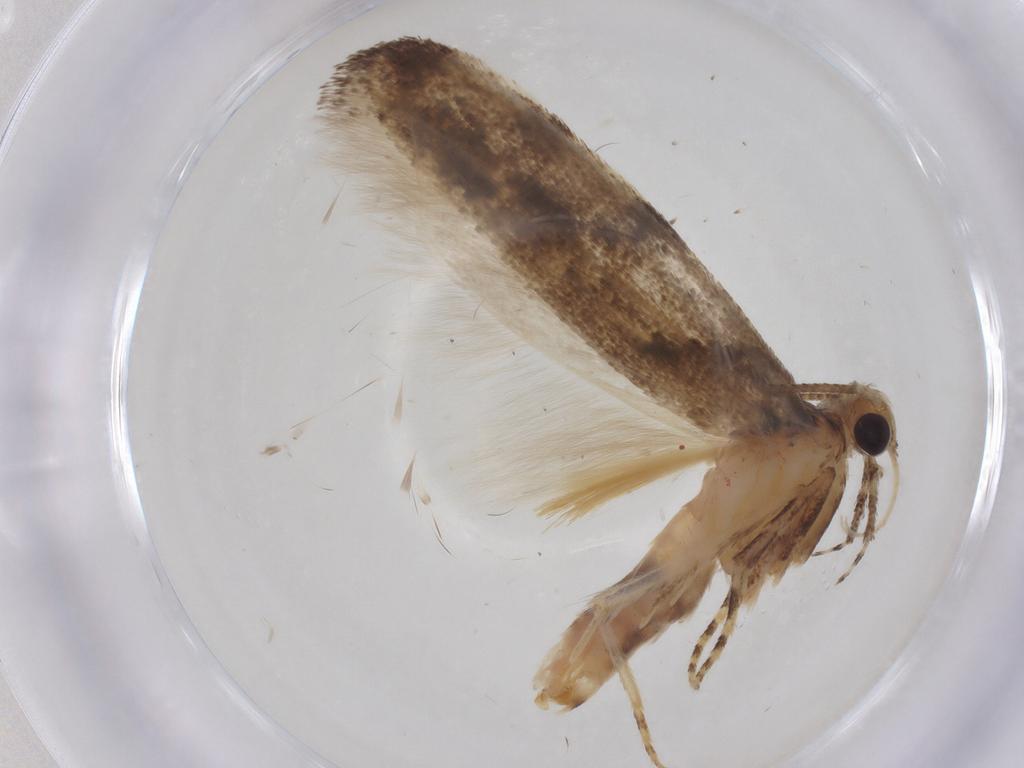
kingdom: Animalia
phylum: Arthropoda
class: Insecta
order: Lepidoptera
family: Gelechiidae
